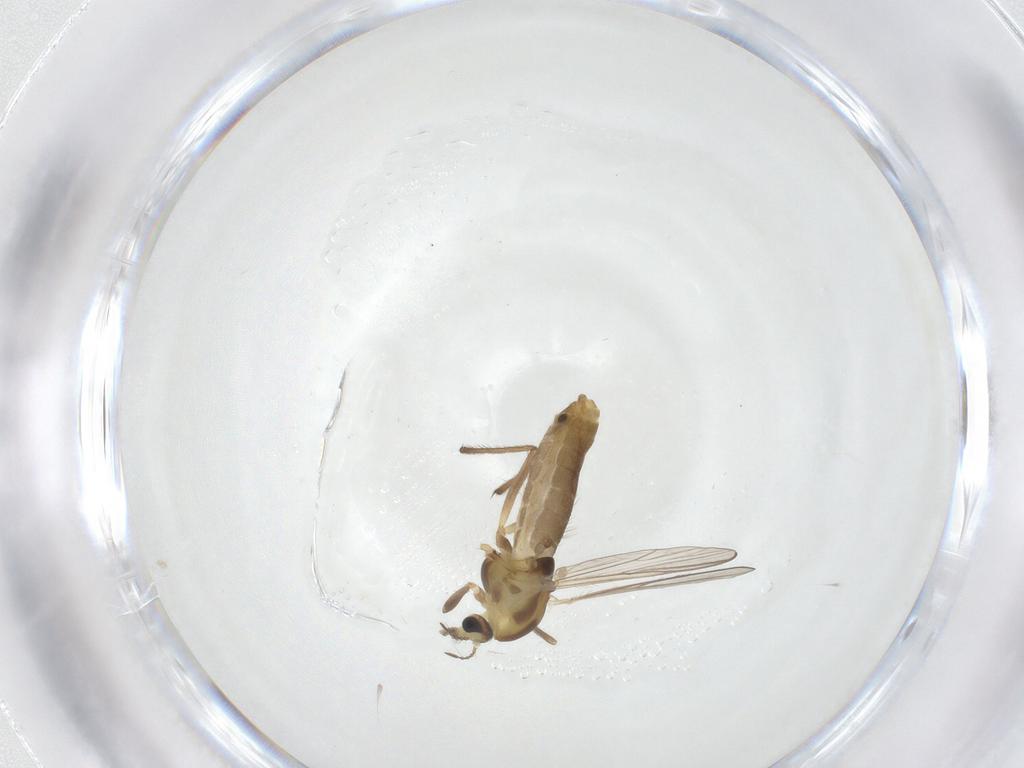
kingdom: Animalia
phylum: Arthropoda
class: Insecta
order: Diptera
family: Chironomidae
